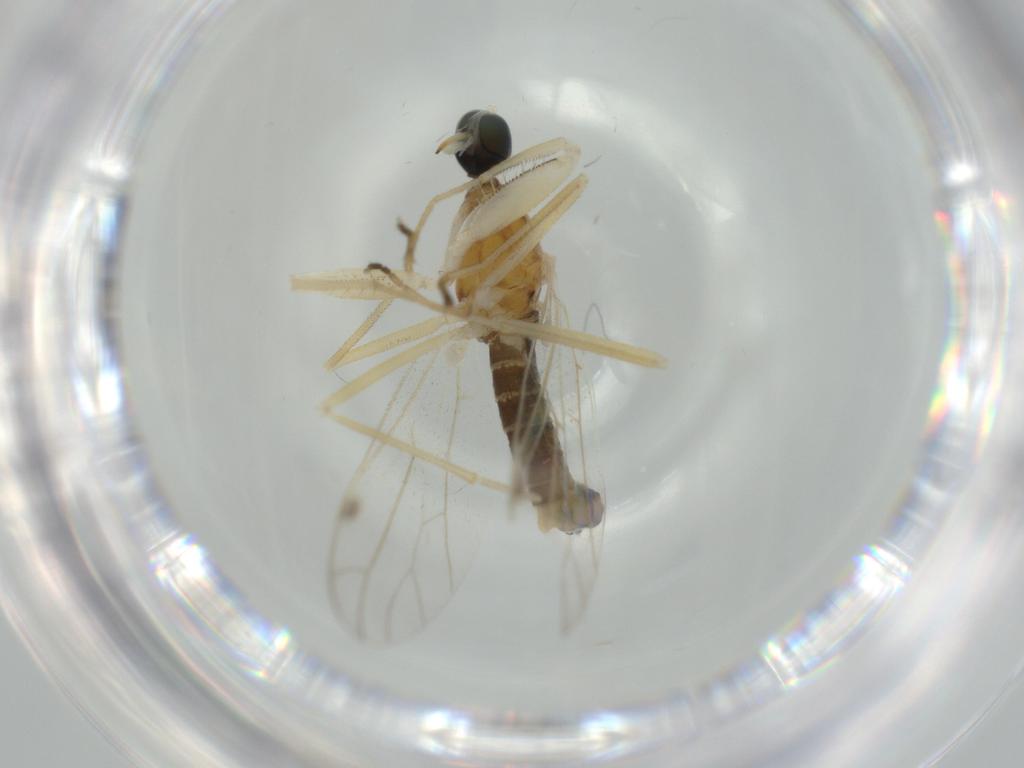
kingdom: Animalia
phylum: Arthropoda
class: Insecta
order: Diptera
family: Empididae
